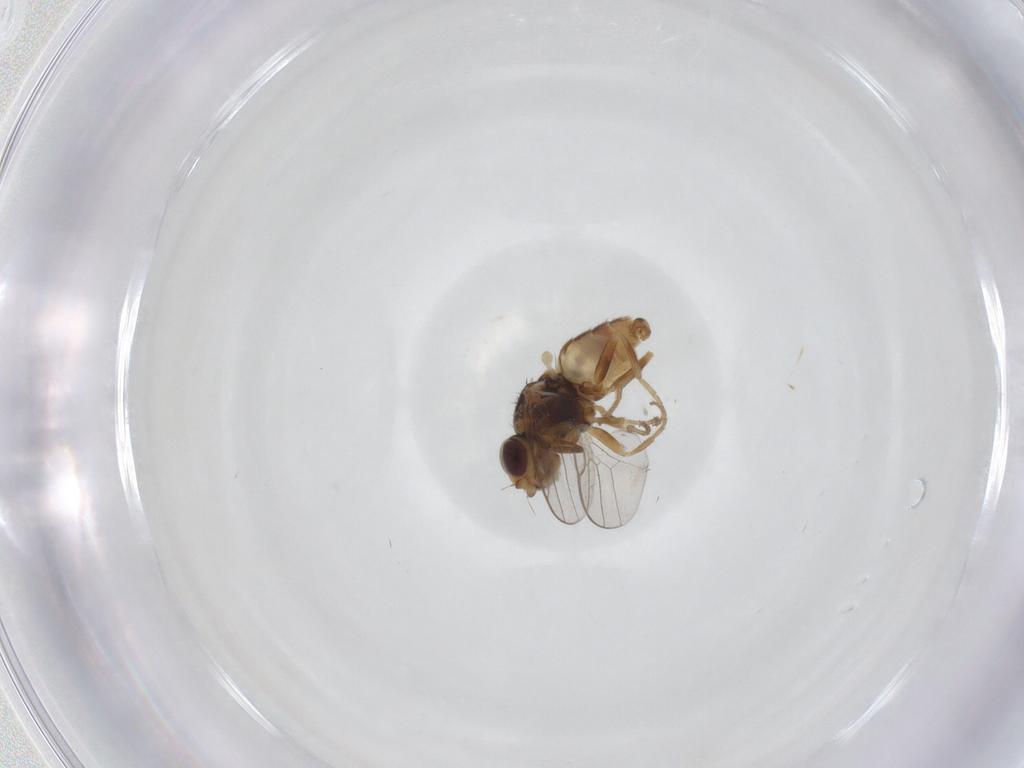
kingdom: Animalia
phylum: Arthropoda
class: Insecta
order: Diptera
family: Chloropidae
